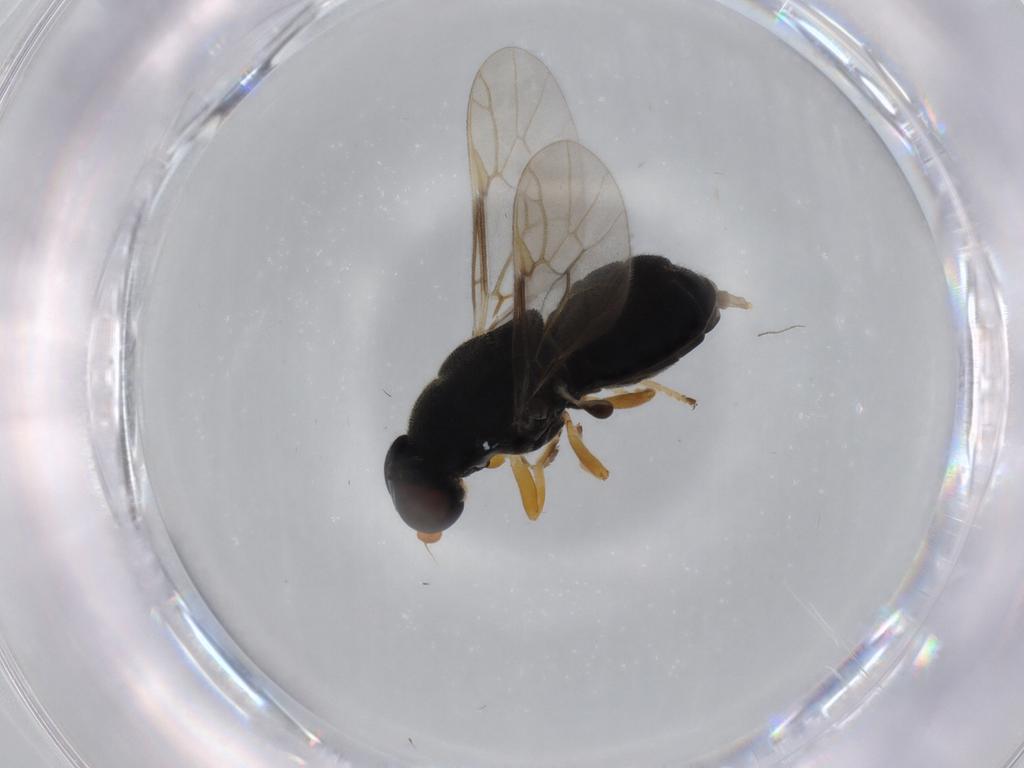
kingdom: Animalia
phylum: Arthropoda
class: Insecta
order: Diptera
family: Stratiomyidae
